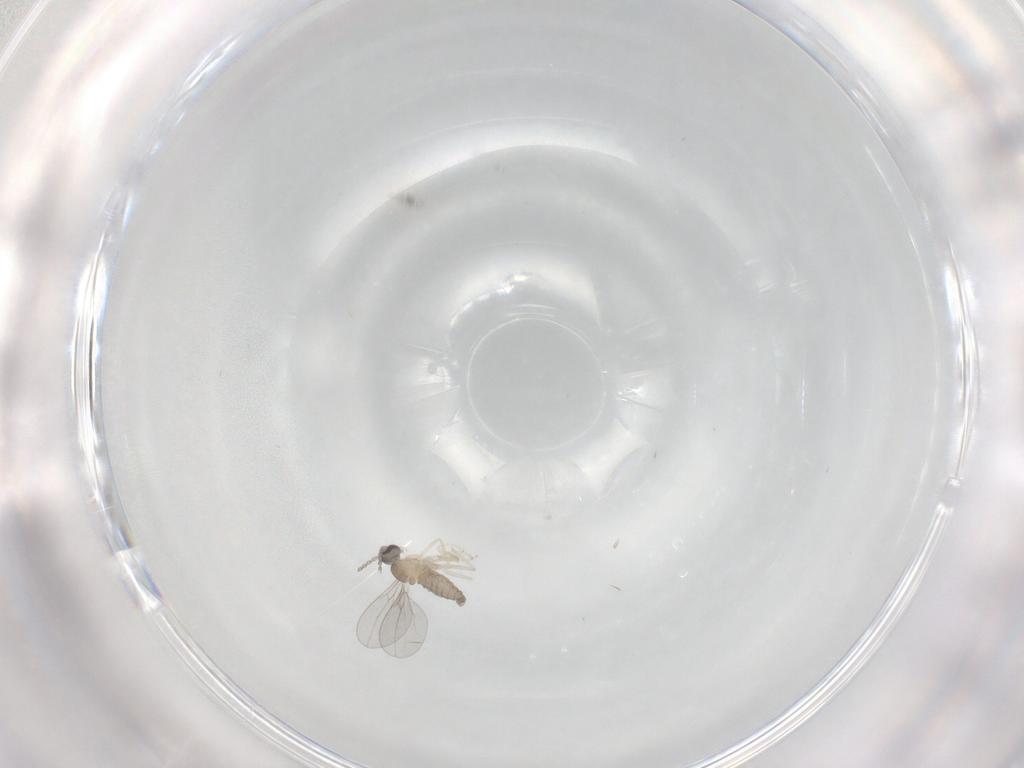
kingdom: Animalia
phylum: Arthropoda
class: Insecta
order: Diptera
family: Cecidomyiidae
